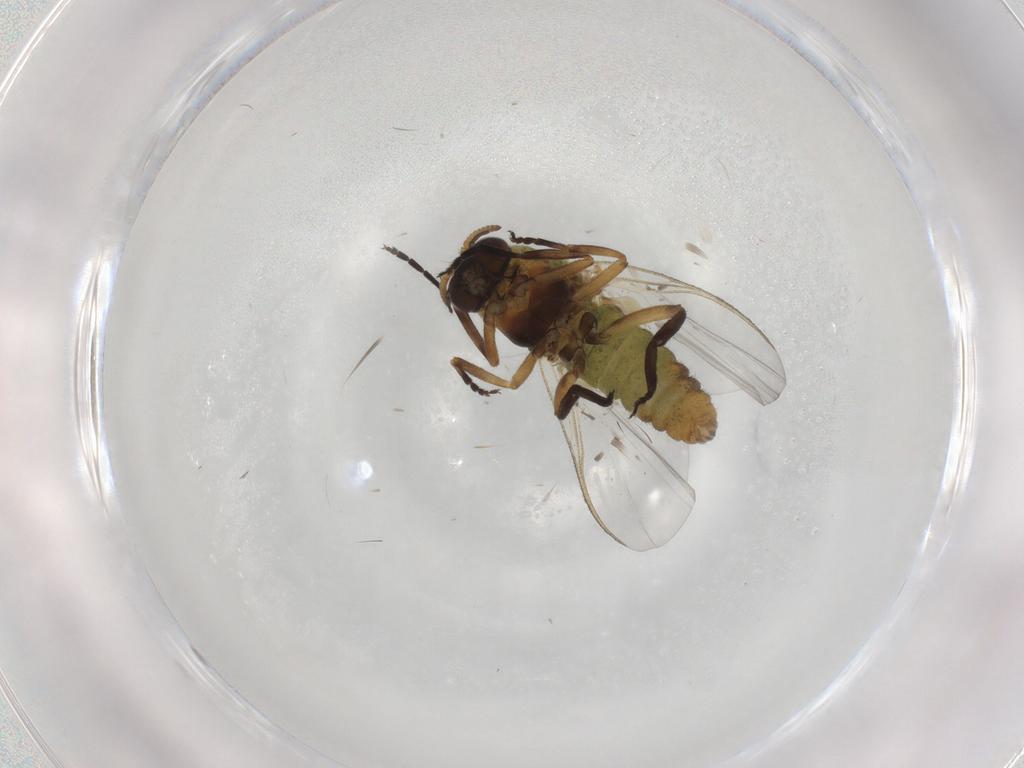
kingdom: Animalia
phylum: Arthropoda
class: Insecta
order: Diptera
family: Simuliidae
